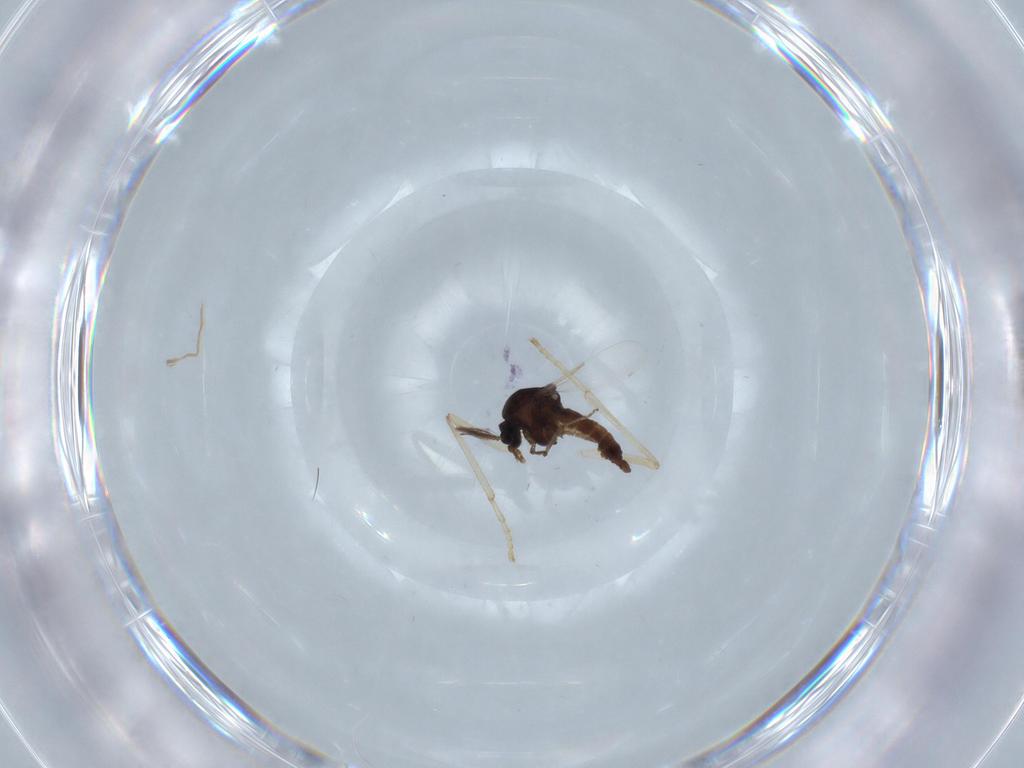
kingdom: Animalia
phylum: Arthropoda
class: Insecta
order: Diptera
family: Ceratopogonidae
